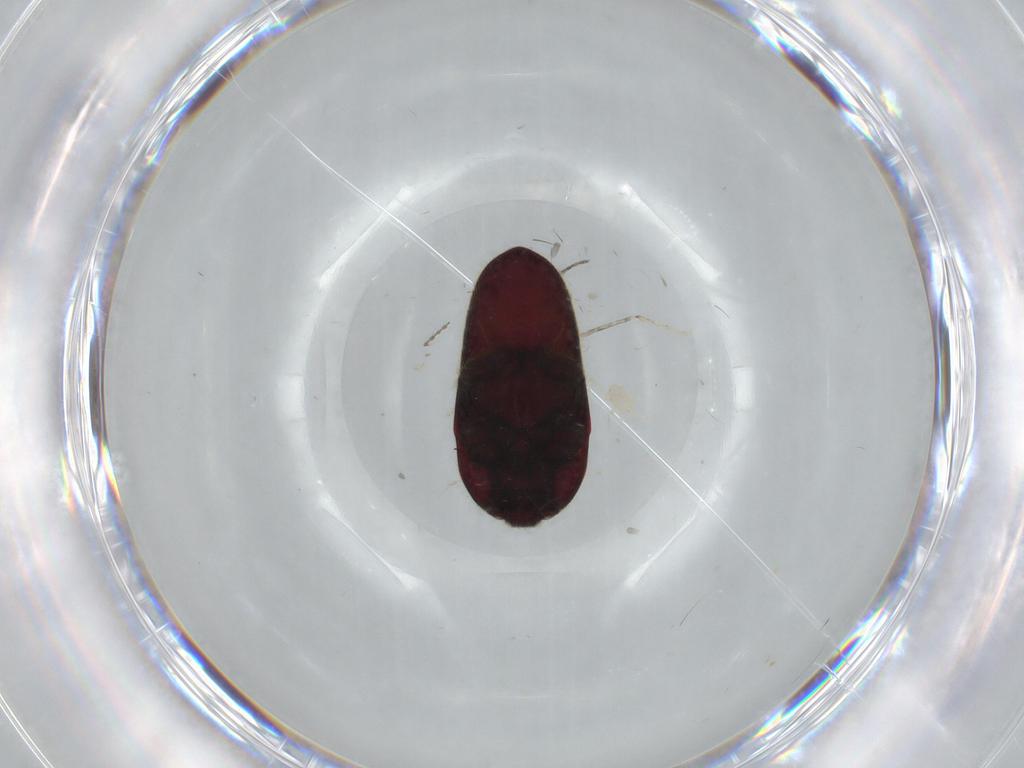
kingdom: Animalia
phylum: Arthropoda
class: Insecta
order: Coleoptera
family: Throscidae
